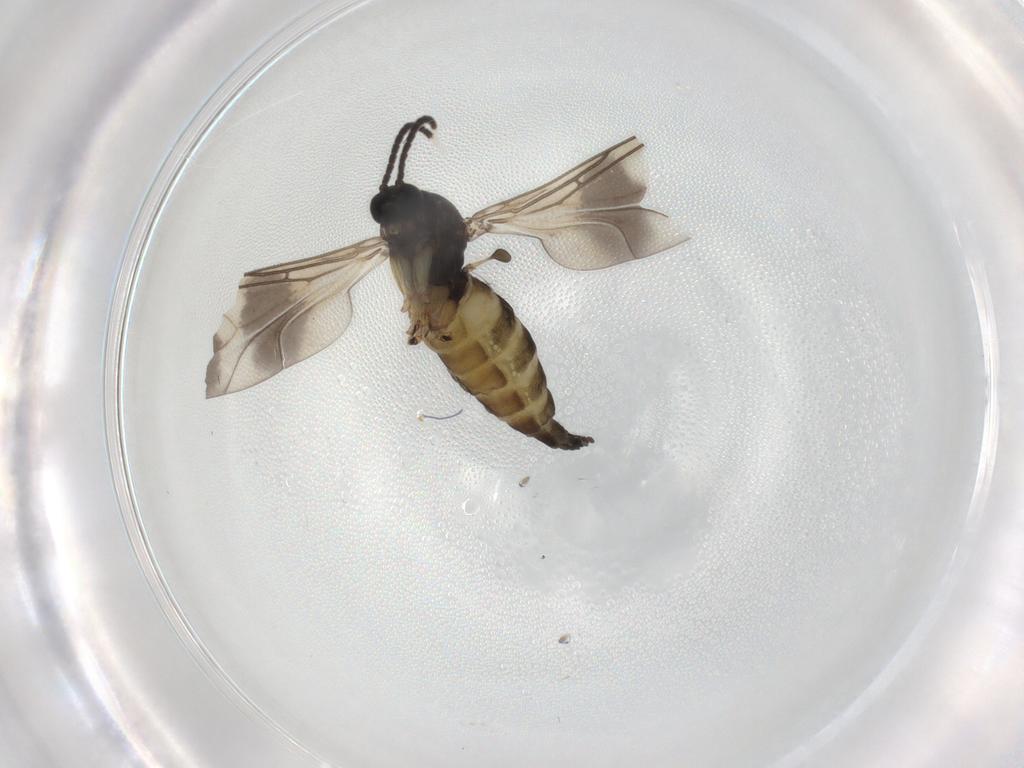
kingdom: Animalia
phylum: Arthropoda
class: Insecta
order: Diptera
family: Sciaridae
